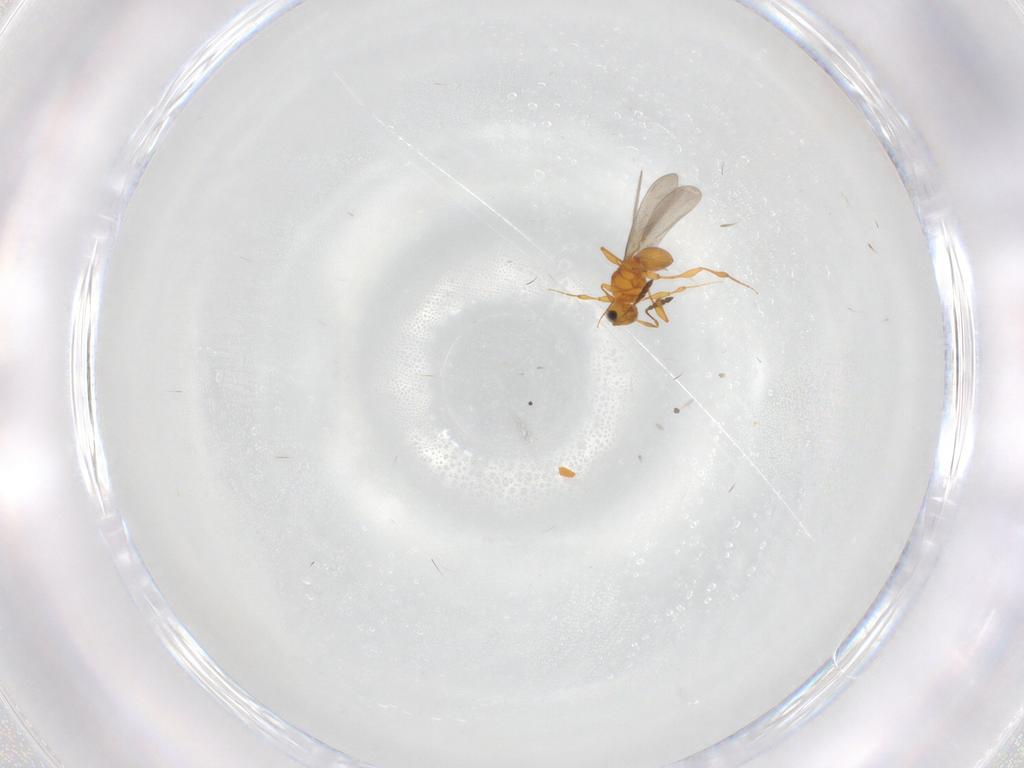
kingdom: Animalia
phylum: Arthropoda
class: Insecta
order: Hymenoptera
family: Platygastridae
